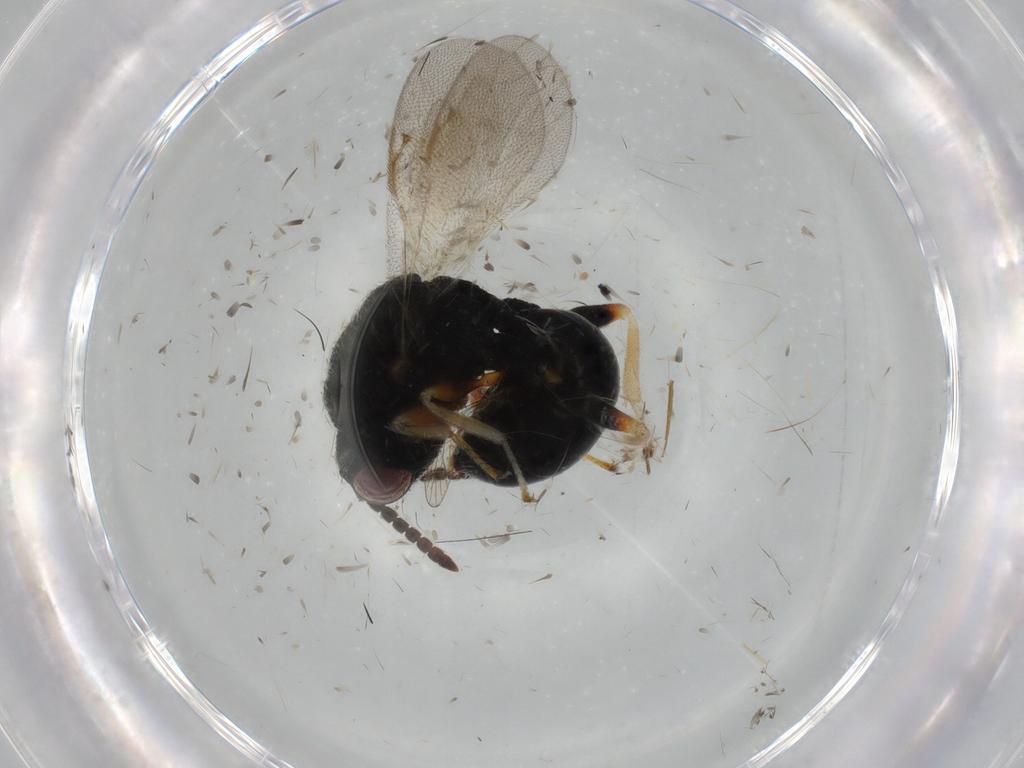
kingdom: Animalia
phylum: Arthropoda
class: Insecta
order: Hymenoptera
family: Bethylidae
